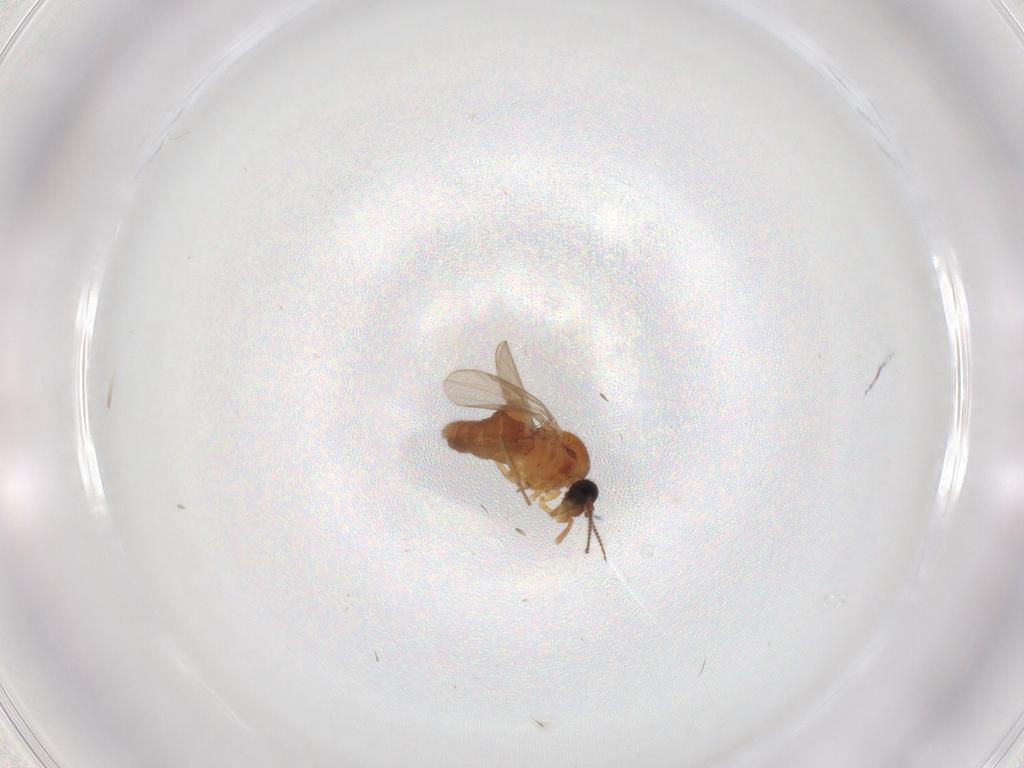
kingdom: Animalia
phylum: Arthropoda
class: Insecta
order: Diptera
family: Ceratopogonidae
